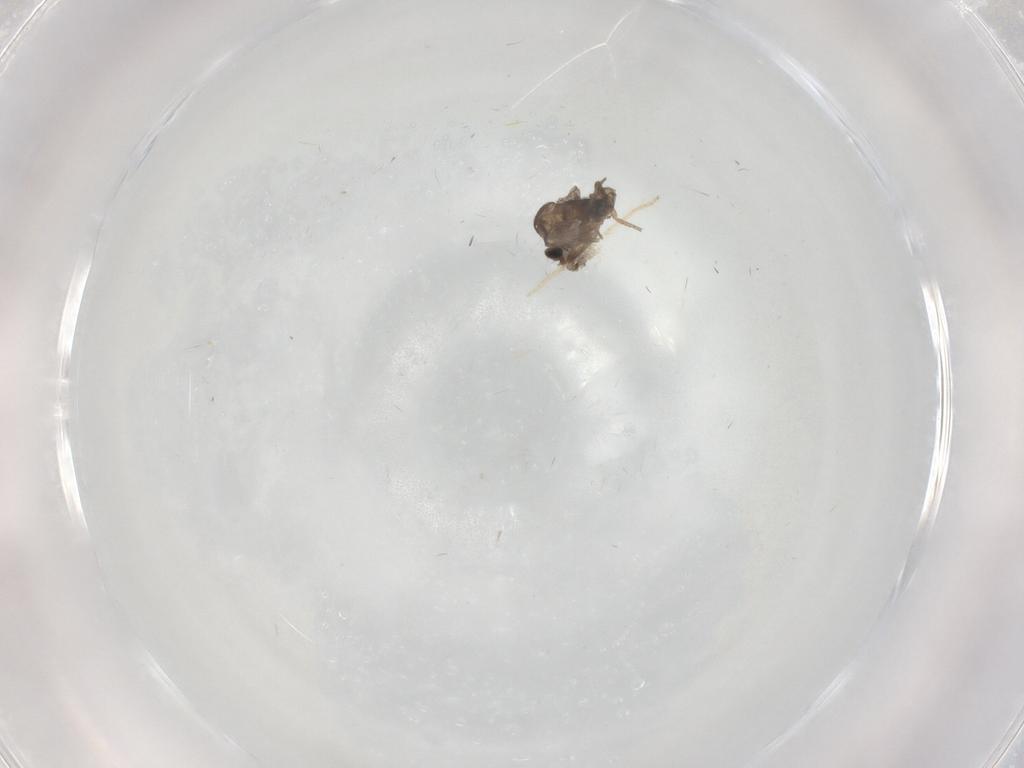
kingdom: Animalia
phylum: Arthropoda
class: Insecta
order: Diptera
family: Phoridae
